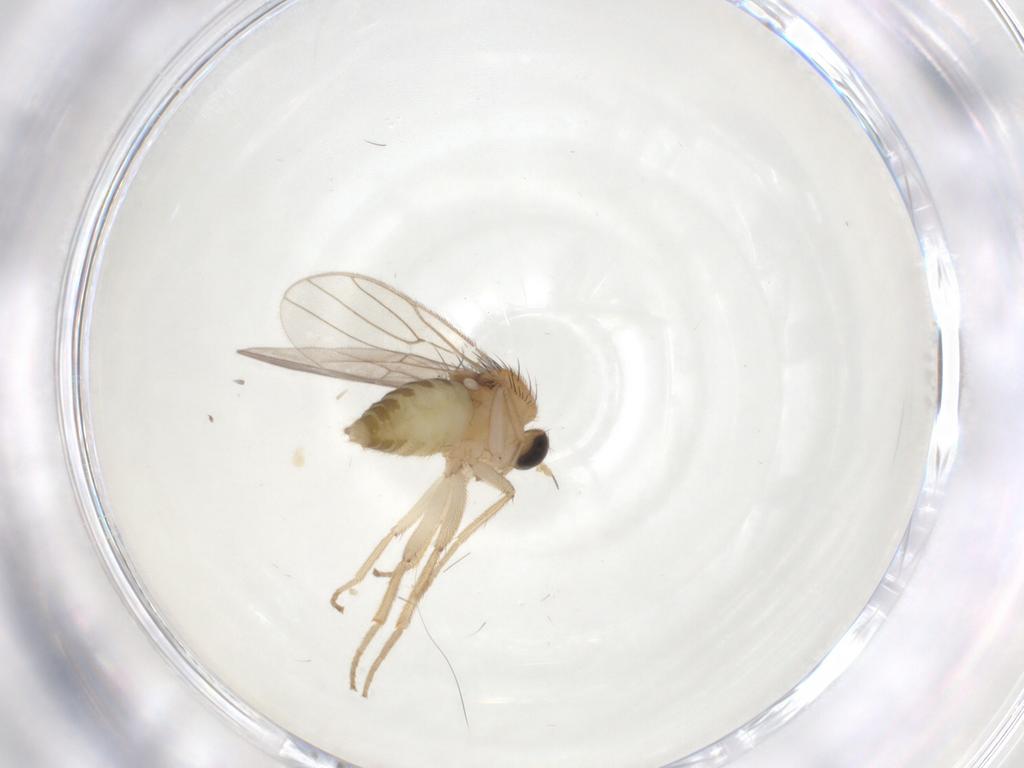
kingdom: Animalia
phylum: Arthropoda
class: Insecta
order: Diptera
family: Hybotidae
